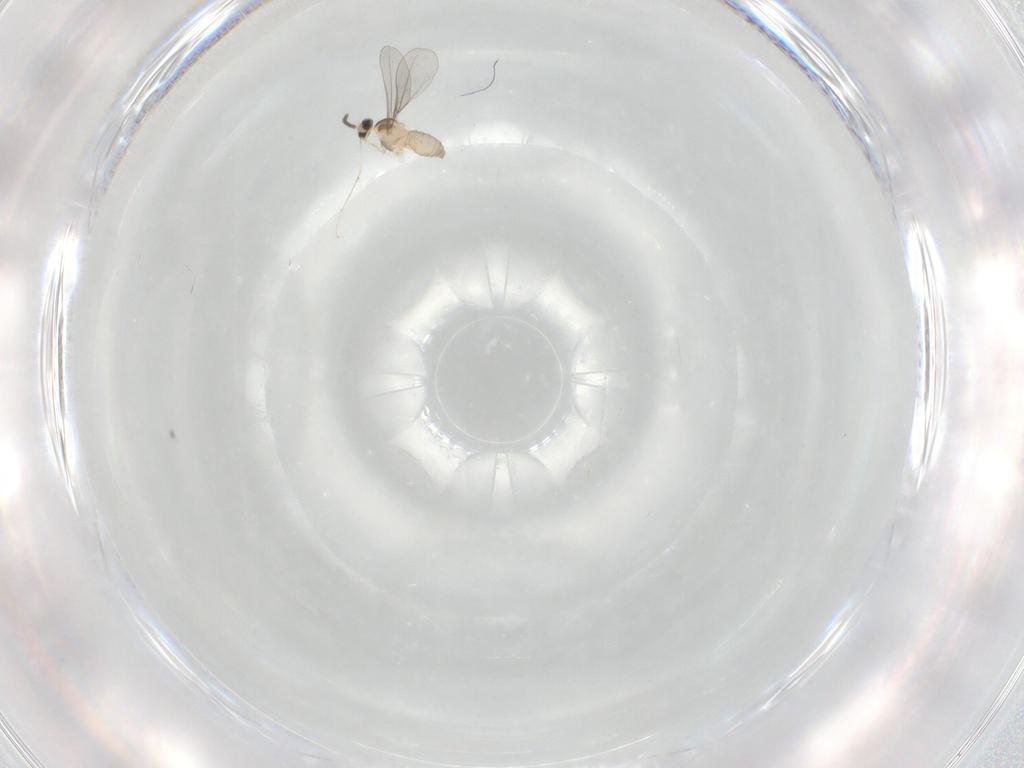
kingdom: Animalia
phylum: Arthropoda
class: Insecta
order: Diptera
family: Cecidomyiidae
